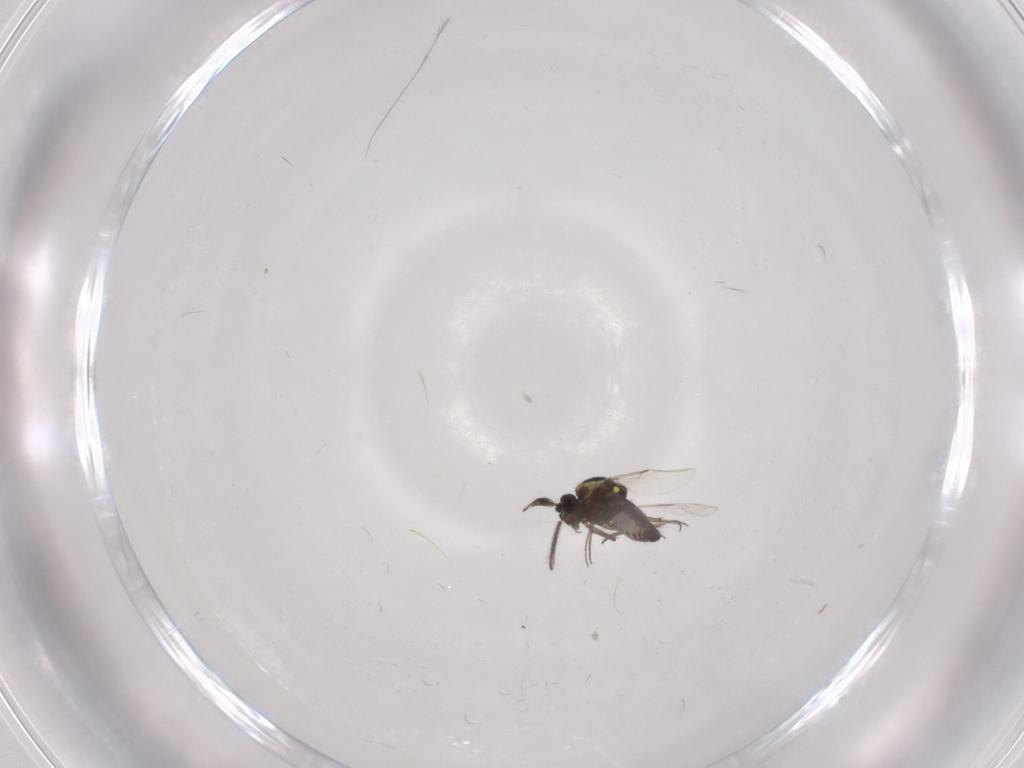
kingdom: Animalia
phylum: Arthropoda
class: Insecta
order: Diptera
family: Ceratopogonidae
